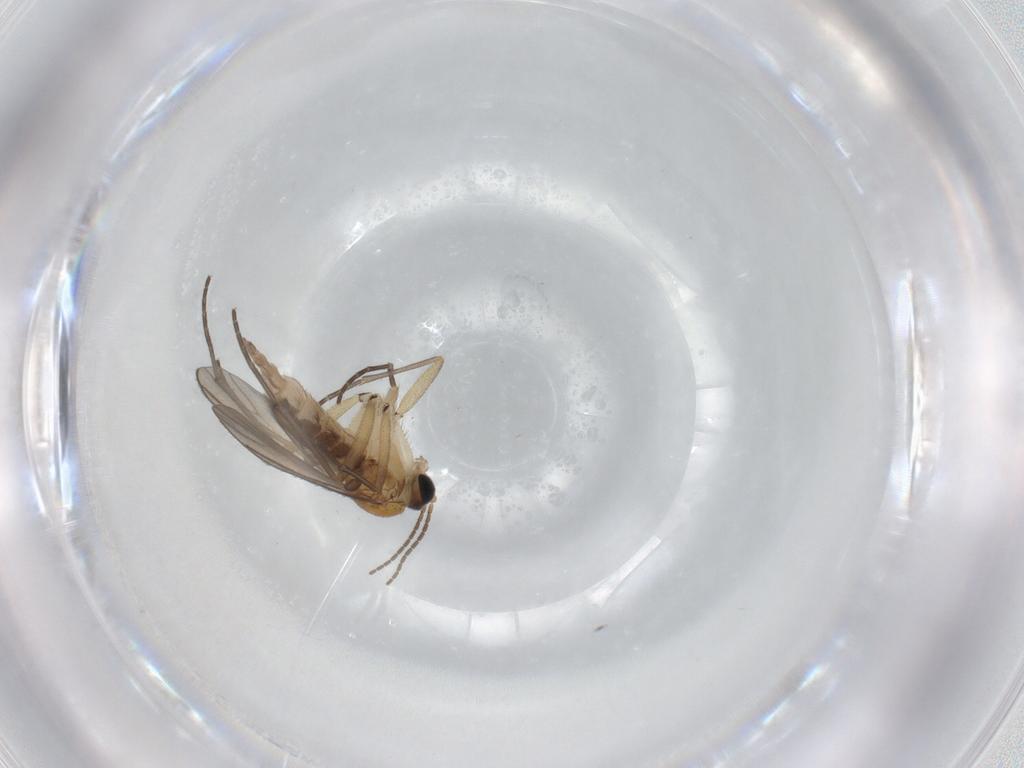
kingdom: Animalia
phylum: Arthropoda
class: Insecta
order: Diptera
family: Sciaridae
